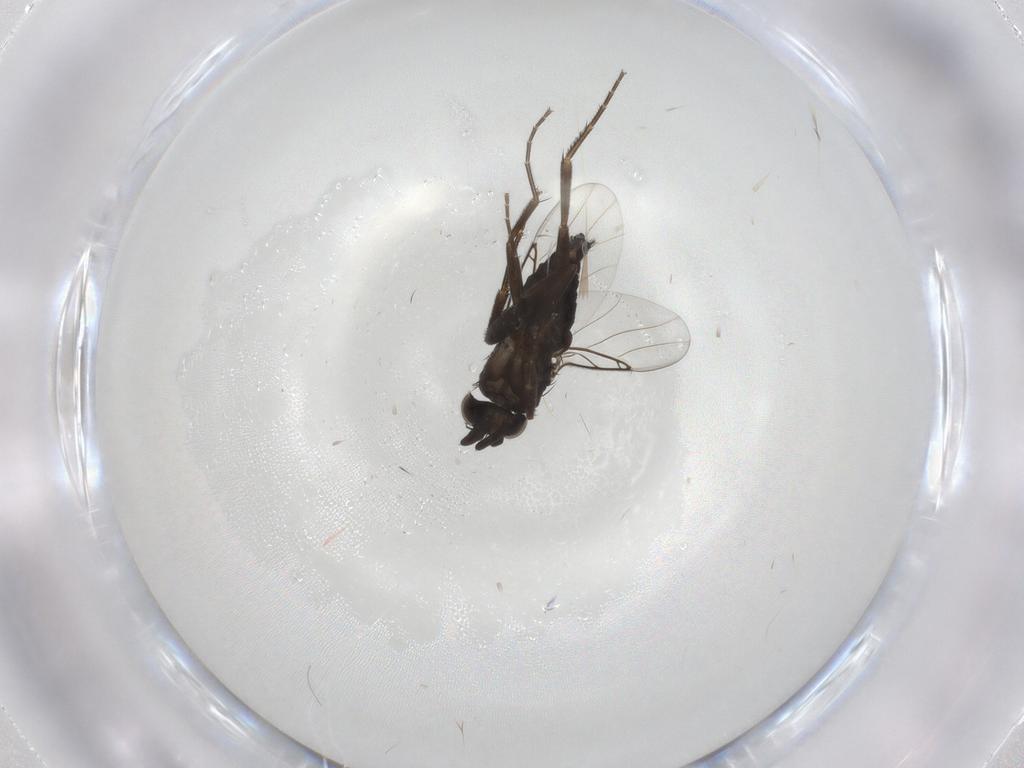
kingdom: Animalia
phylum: Arthropoda
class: Insecta
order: Diptera
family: Phoridae
